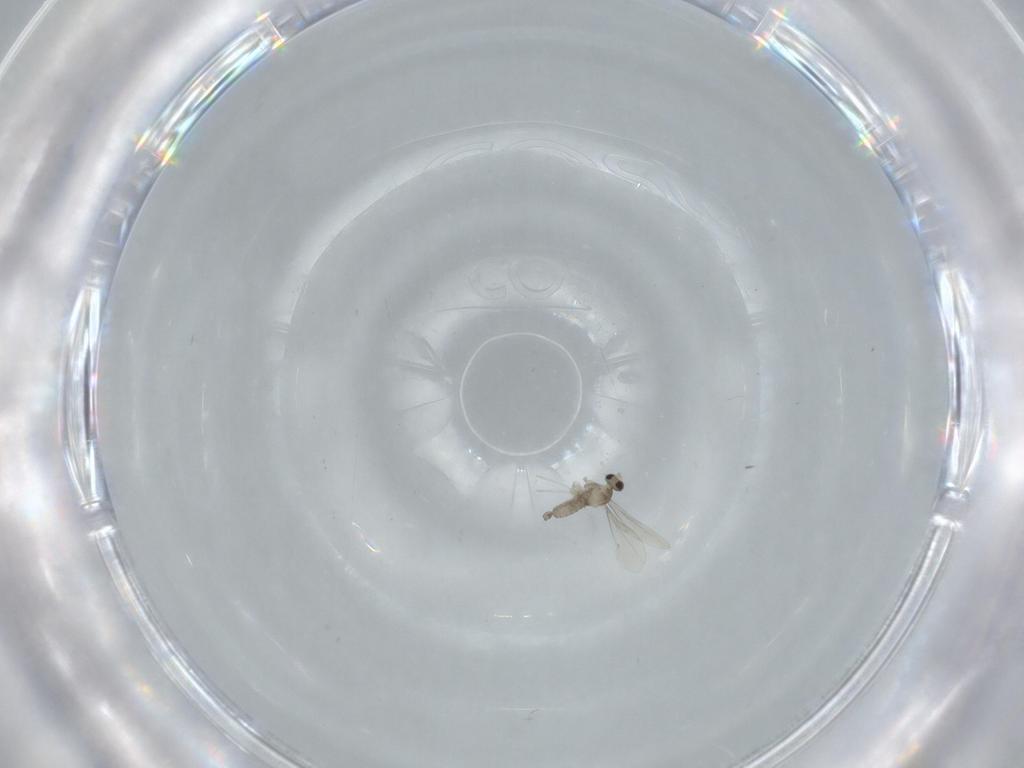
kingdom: Animalia
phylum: Arthropoda
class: Insecta
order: Diptera
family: Cecidomyiidae
